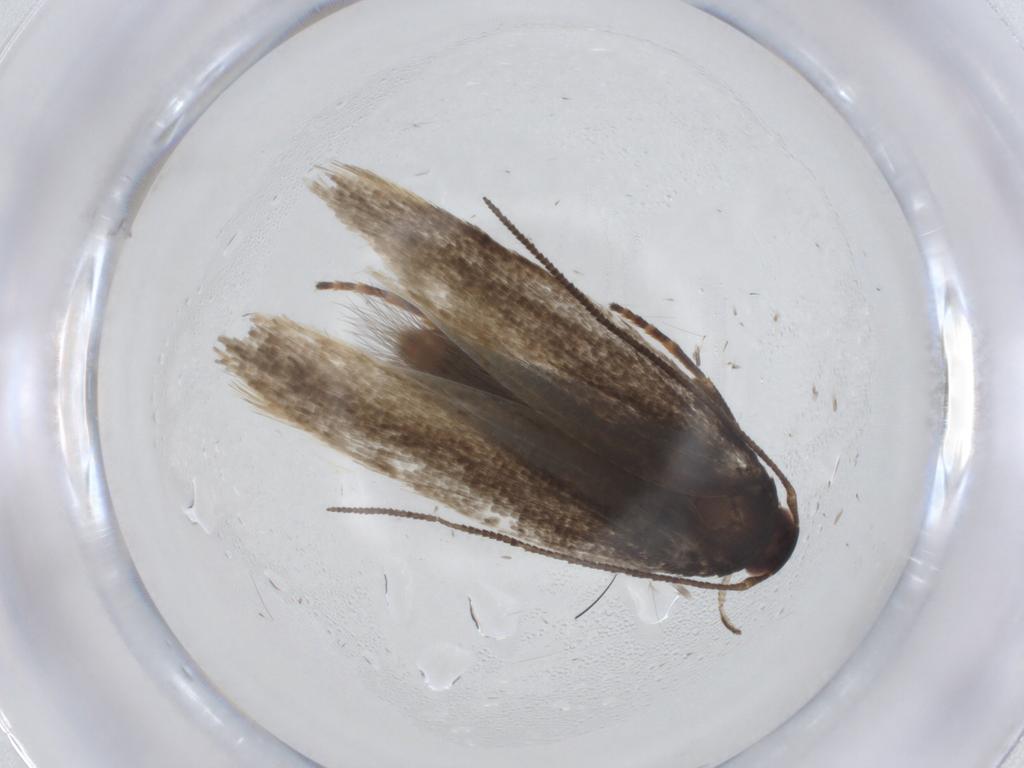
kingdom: Animalia
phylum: Arthropoda
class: Insecta
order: Lepidoptera
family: Momphidae
